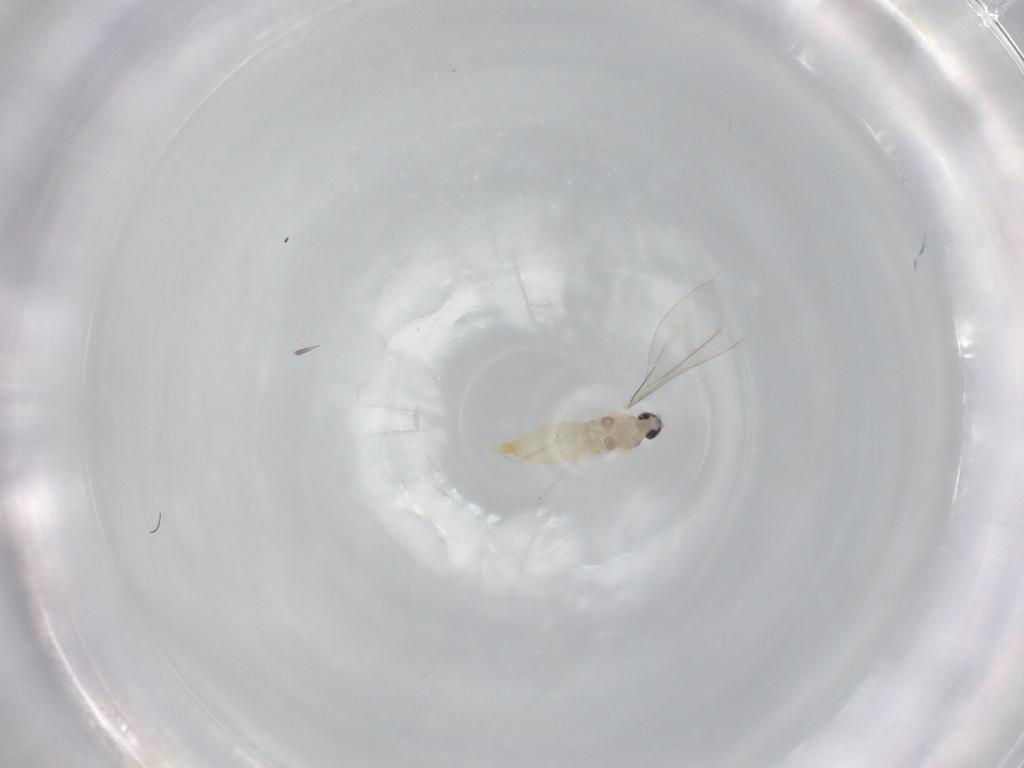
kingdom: Animalia
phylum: Arthropoda
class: Insecta
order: Diptera
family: Cecidomyiidae
